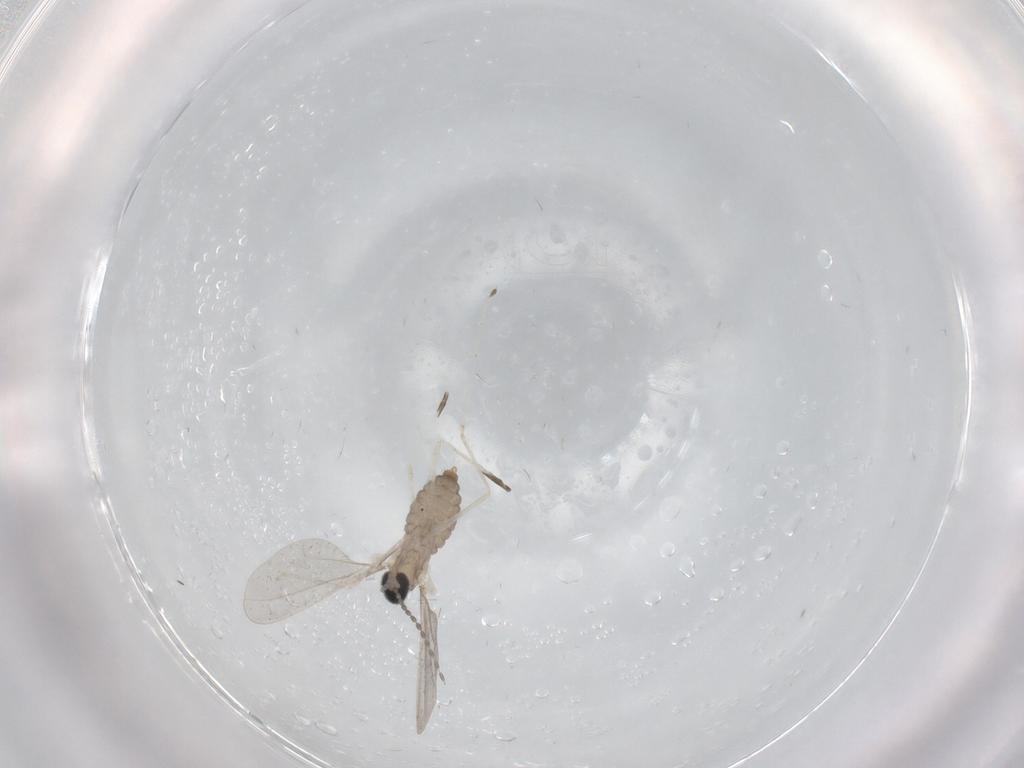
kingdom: Animalia
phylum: Arthropoda
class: Insecta
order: Diptera
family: Cecidomyiidae
